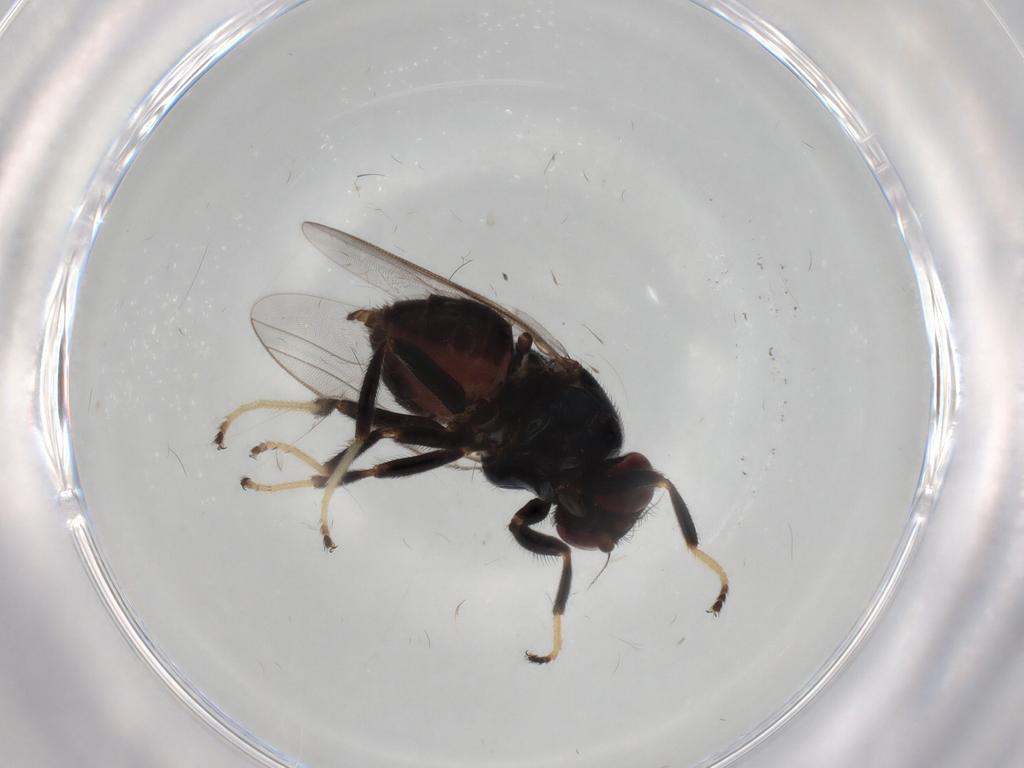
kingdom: Animalia
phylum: Arthropoda
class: Insecta
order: Diptera
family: Chloropidae
